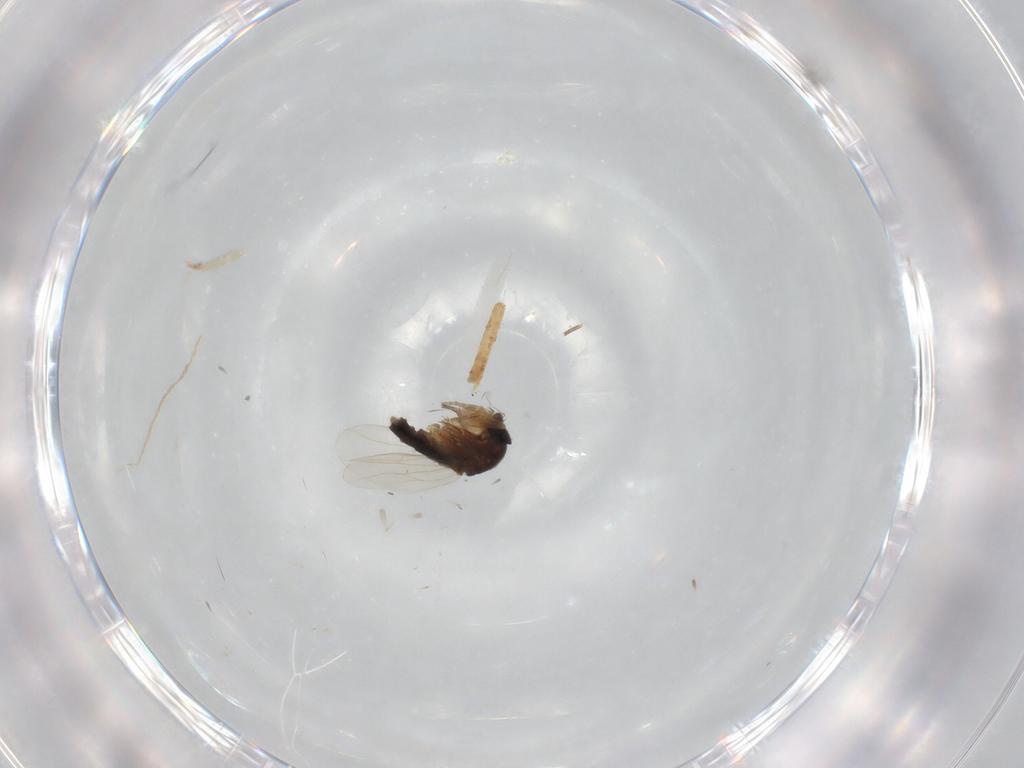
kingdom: Animalia
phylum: Arthropoda
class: Insecta
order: Diptera
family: Phoridae
